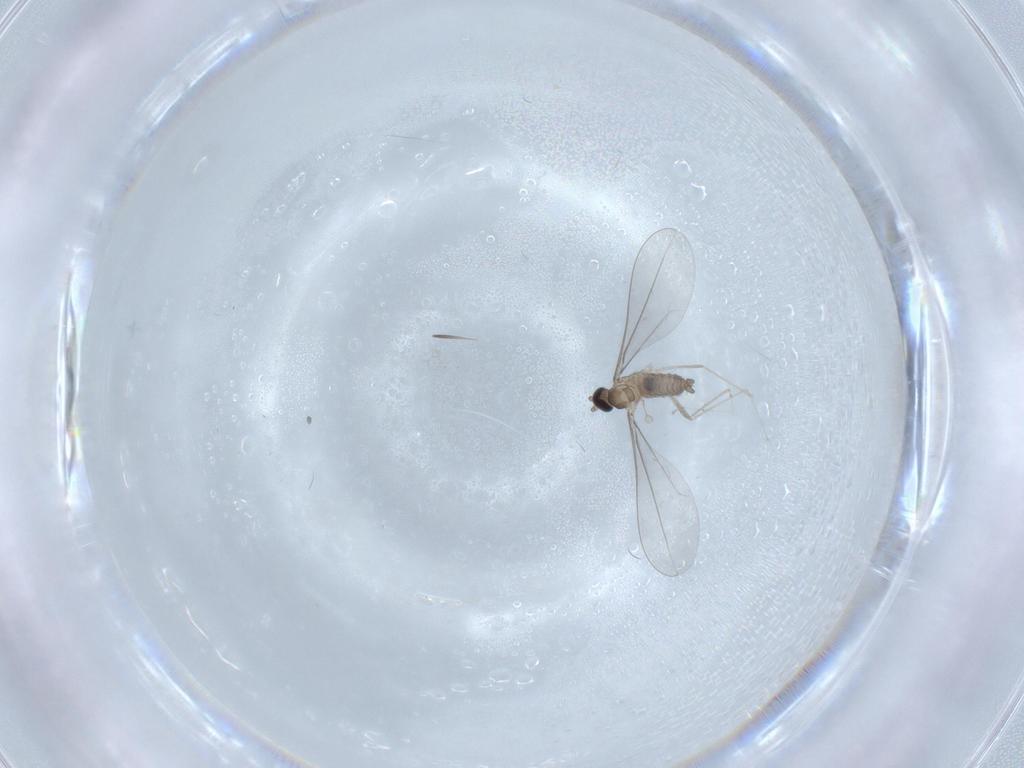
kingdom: Animalia
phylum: Arthropoda
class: Insecta
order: Diptera
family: Cecidomyiidae
